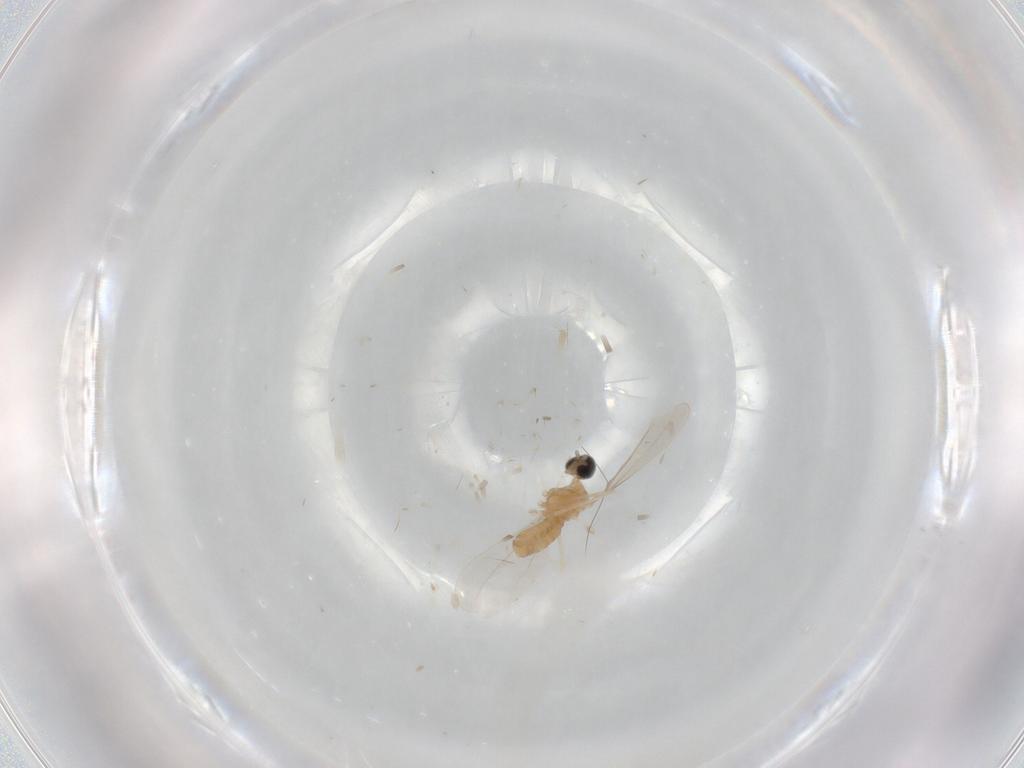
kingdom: Animalia
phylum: Arthropoda
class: Insecta
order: Diptera
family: Cecidomyiidae
